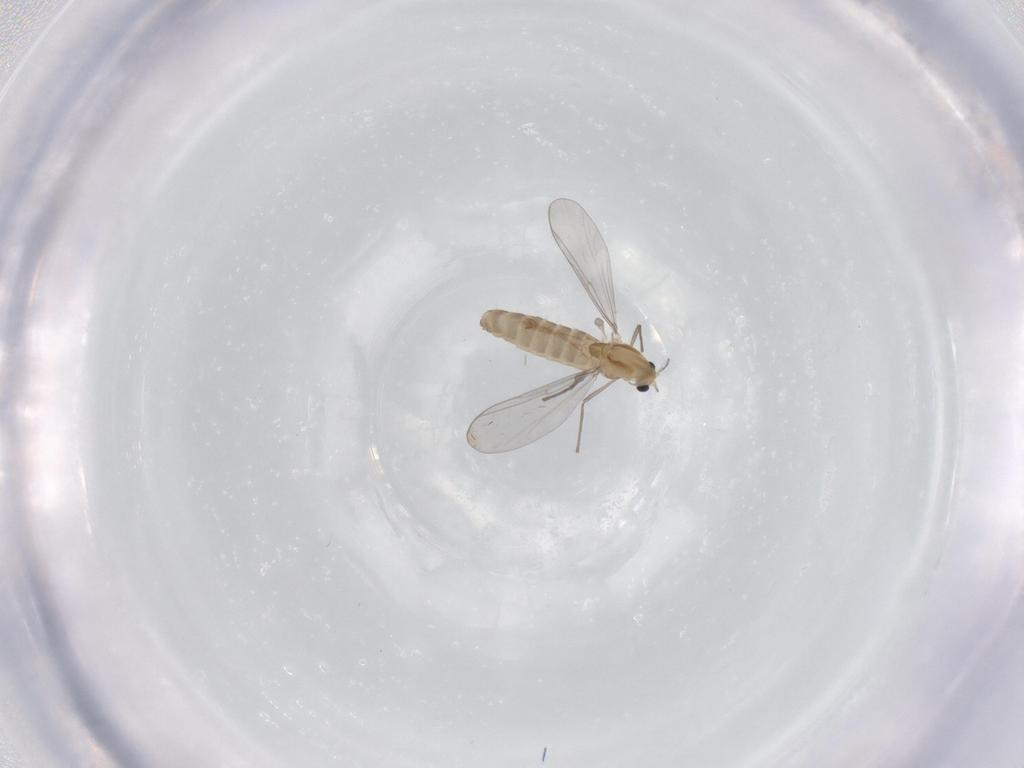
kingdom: Animalia
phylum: Arthropoda
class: Insecta
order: Diptera
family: Chironomidae
